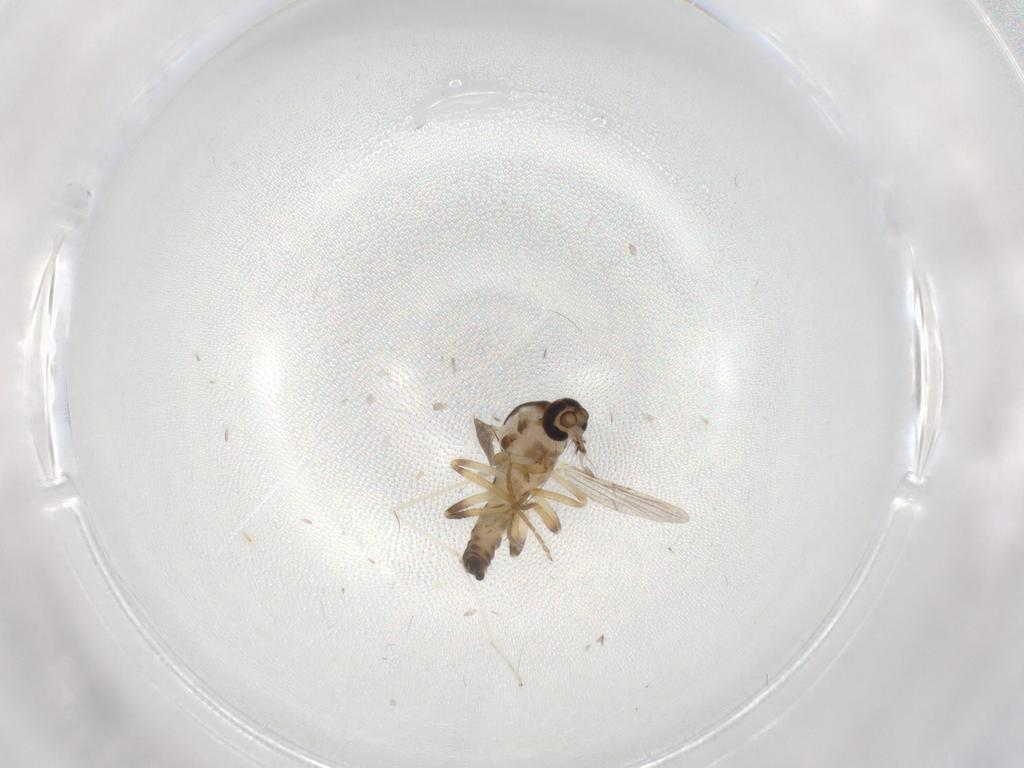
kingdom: Animalia
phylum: Arthropoda
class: Insecta
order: Diptera
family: Ceratopogonidae
